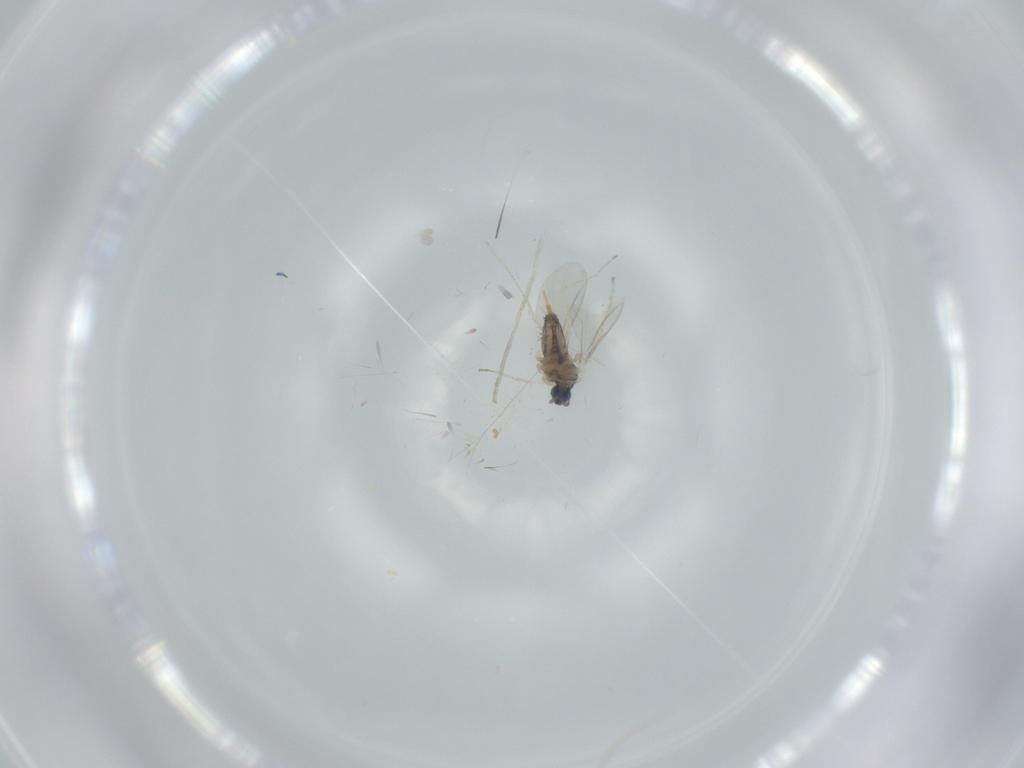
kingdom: Animalia
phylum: Arthropoda
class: Insecta
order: Diptera
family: Cecidomyiidae
